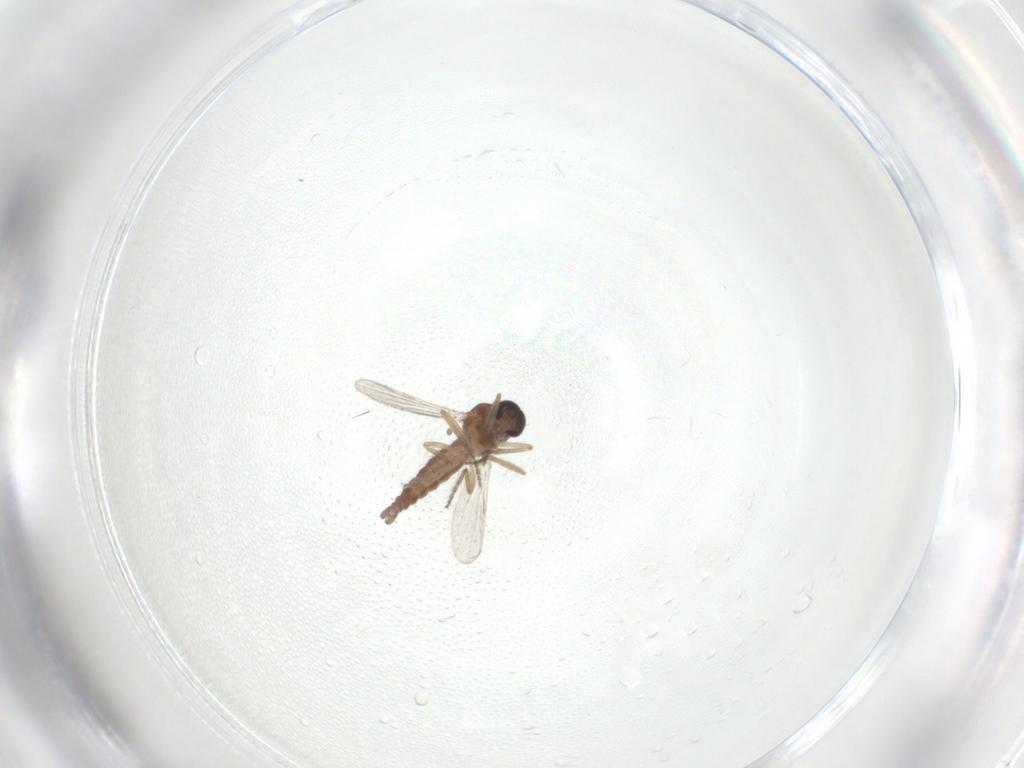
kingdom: Animalia
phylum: Arthropoda
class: Insecta
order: Diptera
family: Ceratopogonidae
